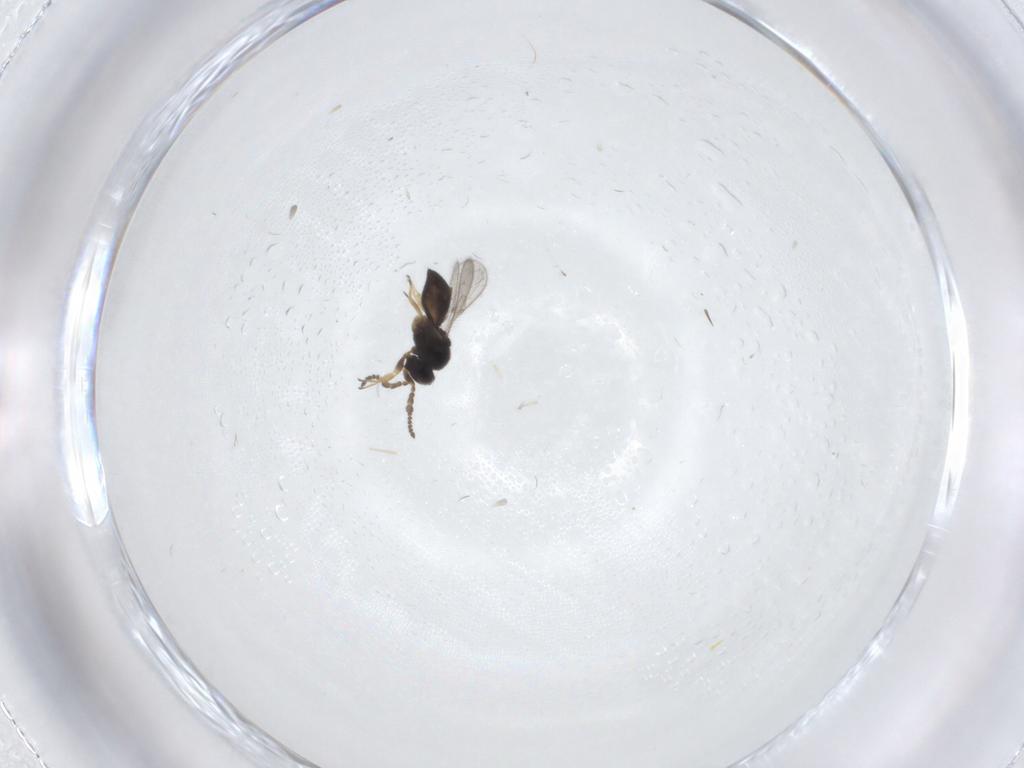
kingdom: Animalia
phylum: Arthropoda
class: Insecta
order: Hymenoptera
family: Scelionidae
